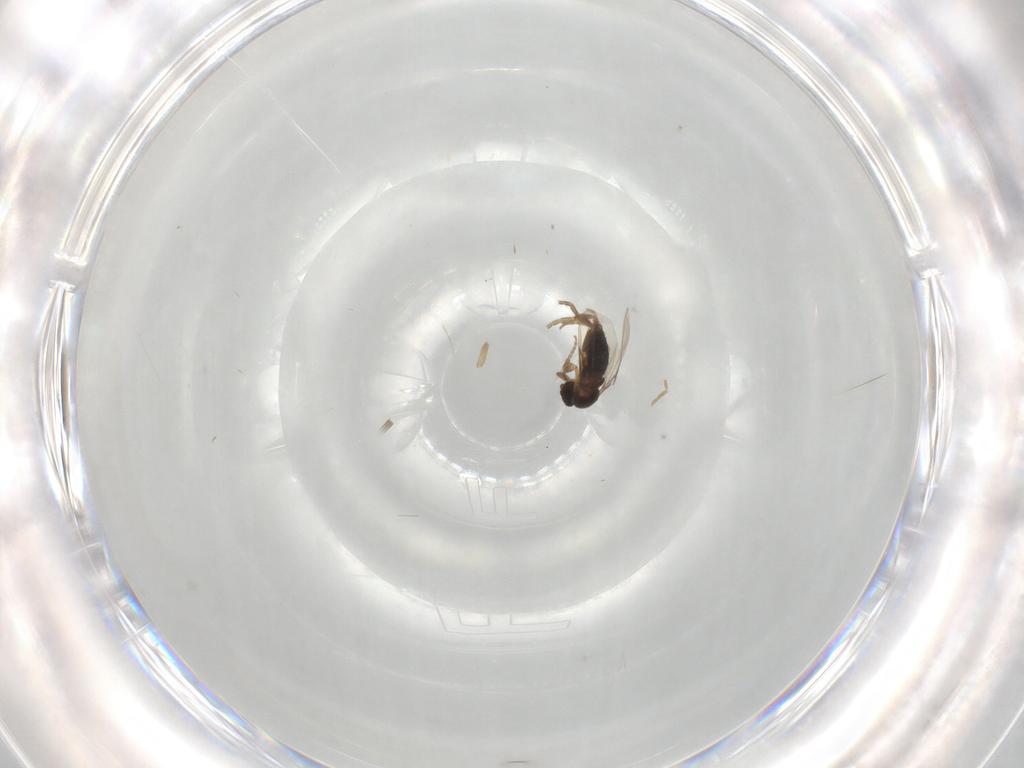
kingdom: Animalia
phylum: Arthropoda
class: Insecta
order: Diptera
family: Phoridae
